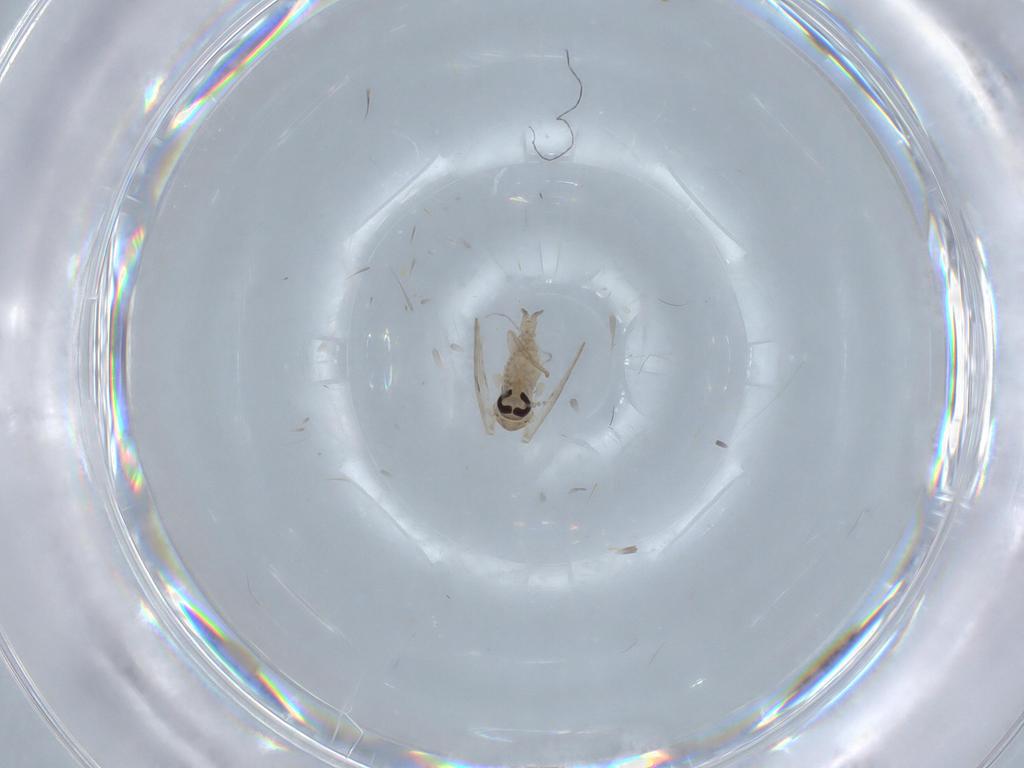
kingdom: Animalia
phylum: Arthropoda
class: Insecta
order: Diptera
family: Psychodidae
